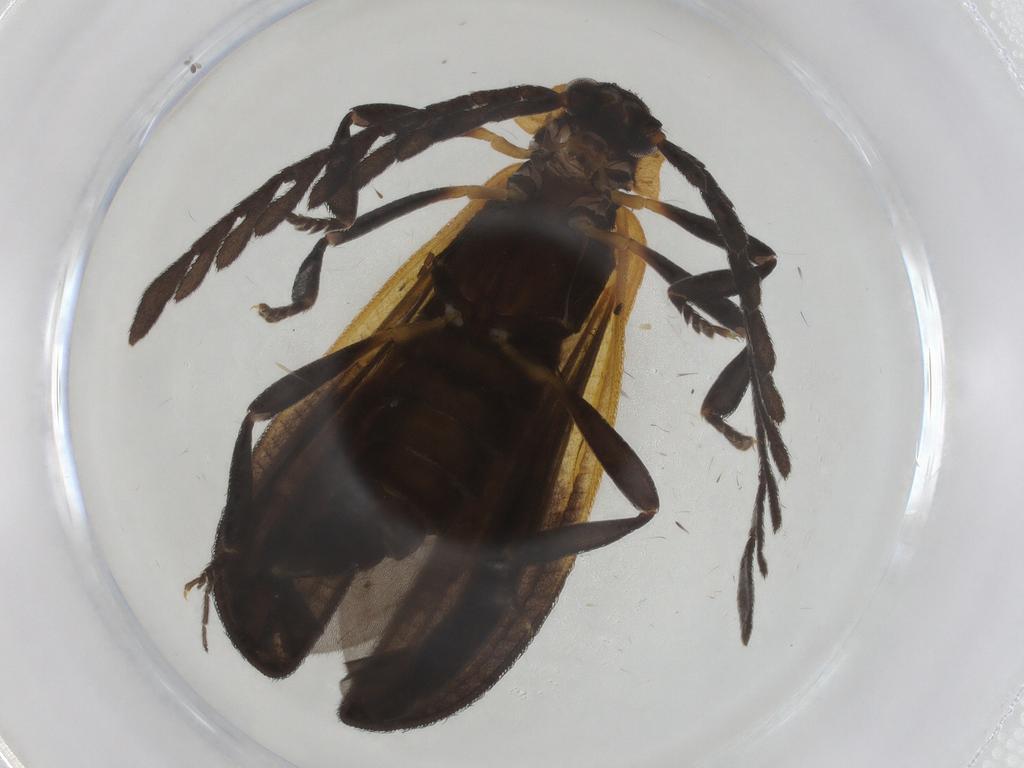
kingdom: Animalia
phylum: Arthropoda
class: Insecta
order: Coleoptera
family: Lycidae
